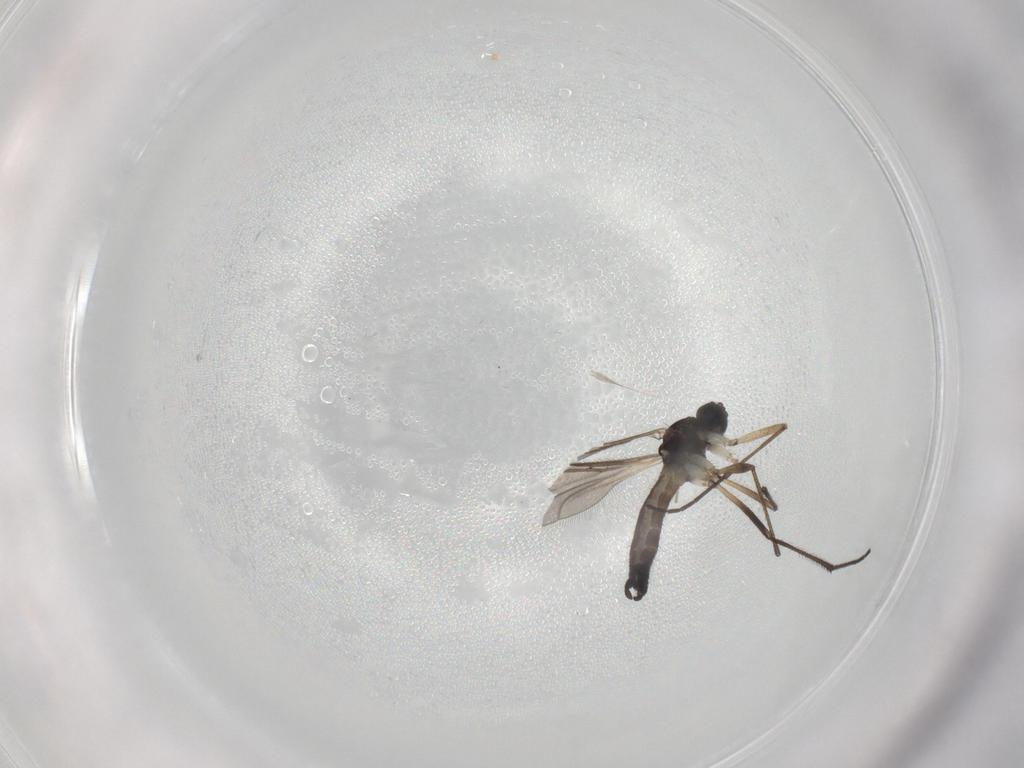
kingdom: Animalia
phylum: Arthropoda
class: Insecta
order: Diptera
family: Sciaridae
